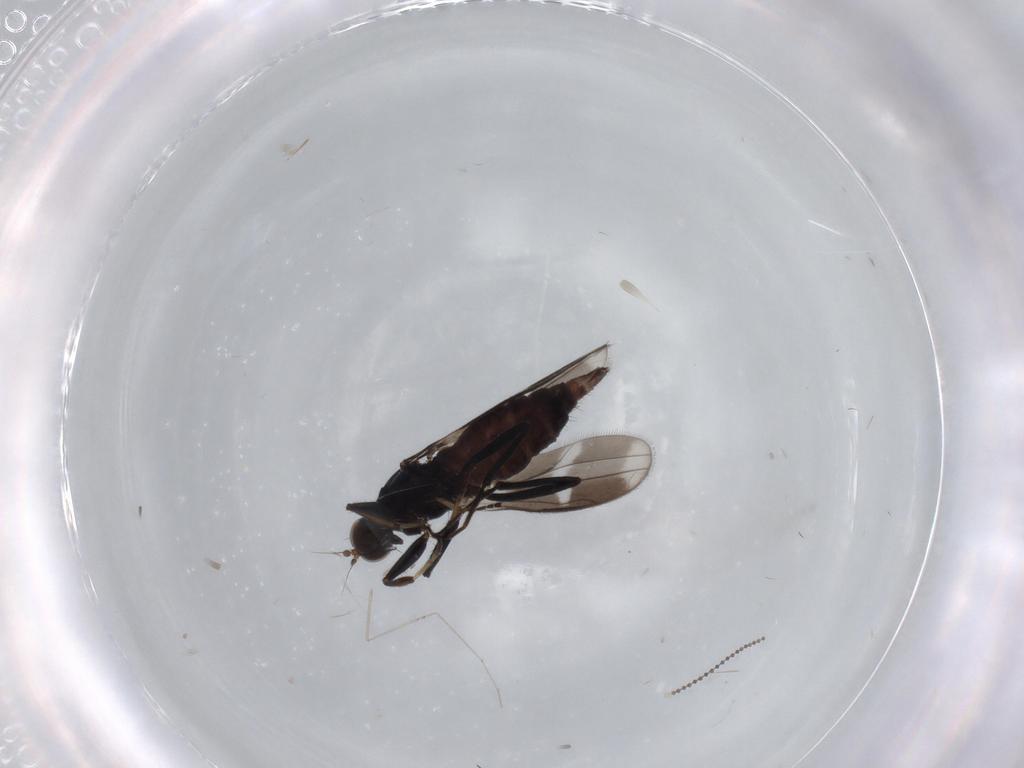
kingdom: Animalia
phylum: Arthropoda
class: Insecta
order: Diptera
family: Hybotidae
